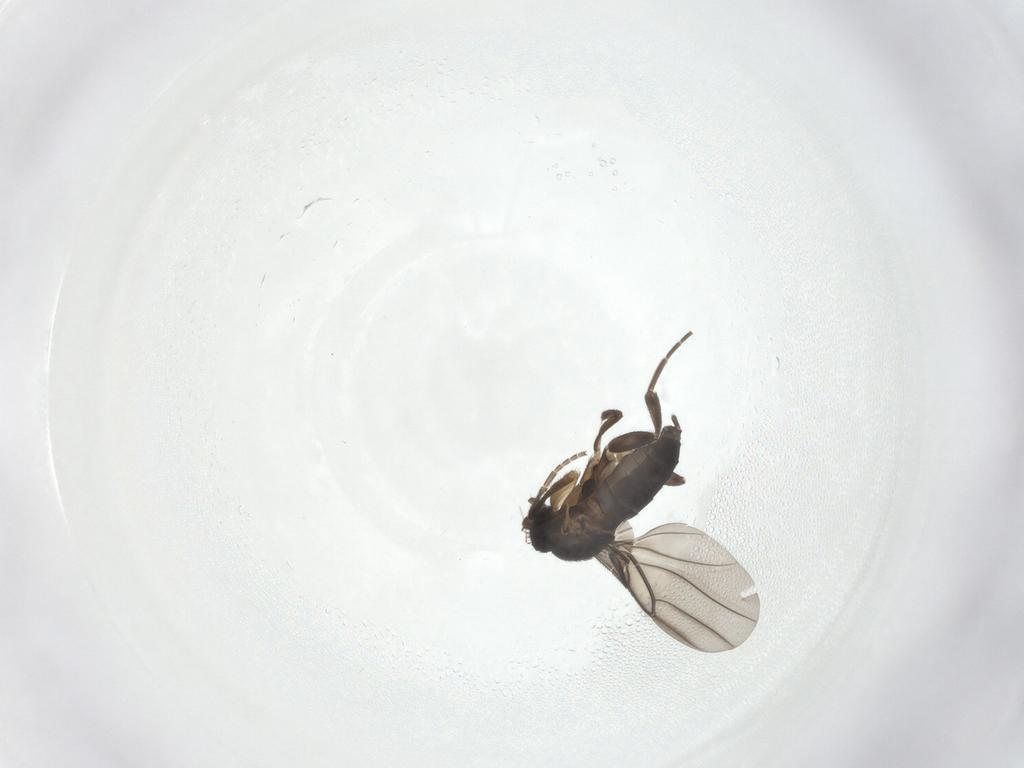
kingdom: Animalia
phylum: Arthropoda
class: Insecta
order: Diptera
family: Phoridae
